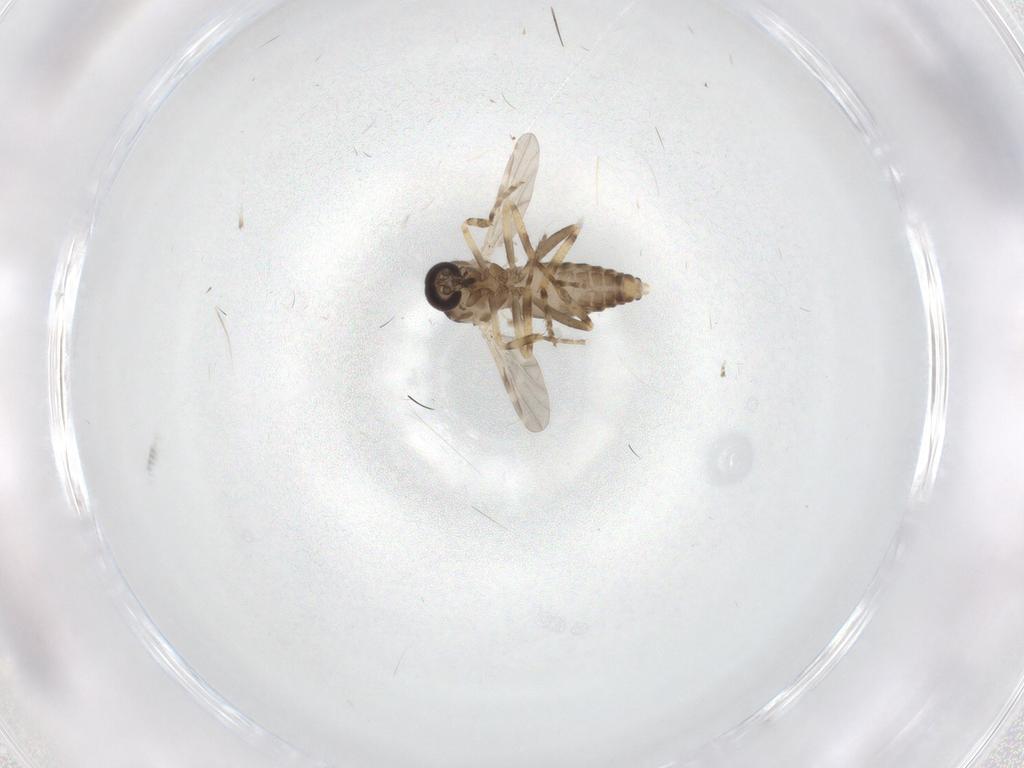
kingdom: Animalia
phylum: Arthropoda
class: Insecta
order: Diptera
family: Ceratopogonidae
